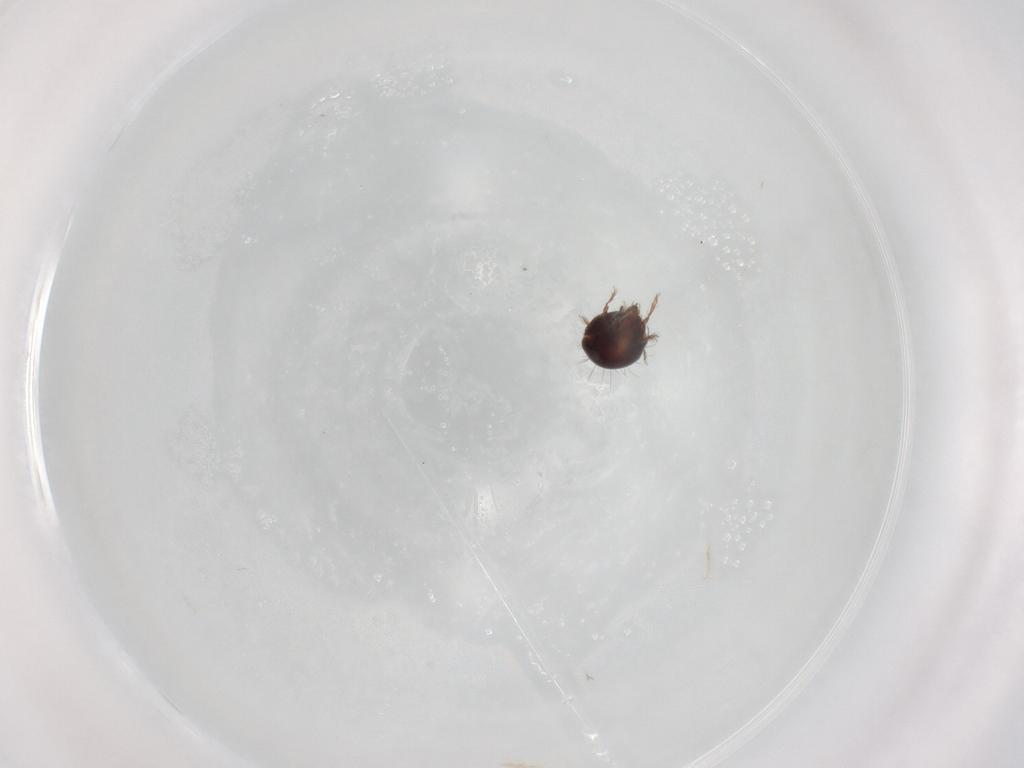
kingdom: Animalia
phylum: Arthropoda
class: Arachnida
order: Sarcoptiformes
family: Humerobatidae
